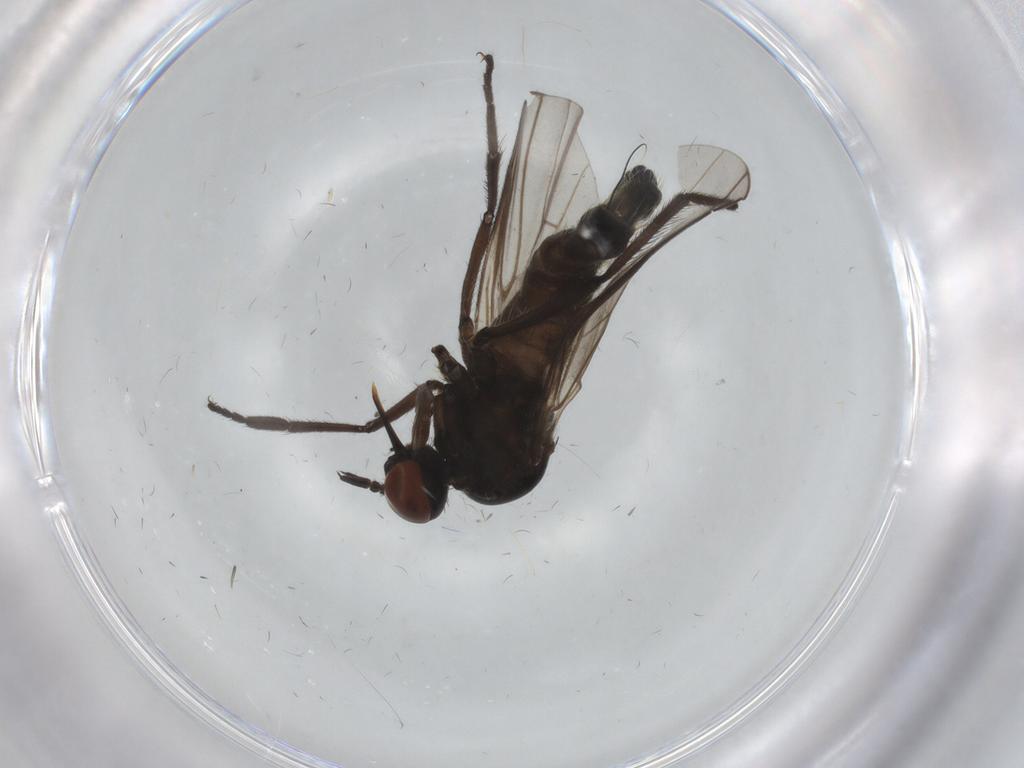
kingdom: Animalia
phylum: Arthropoda
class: Insecta
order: Diptera
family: Empididae
